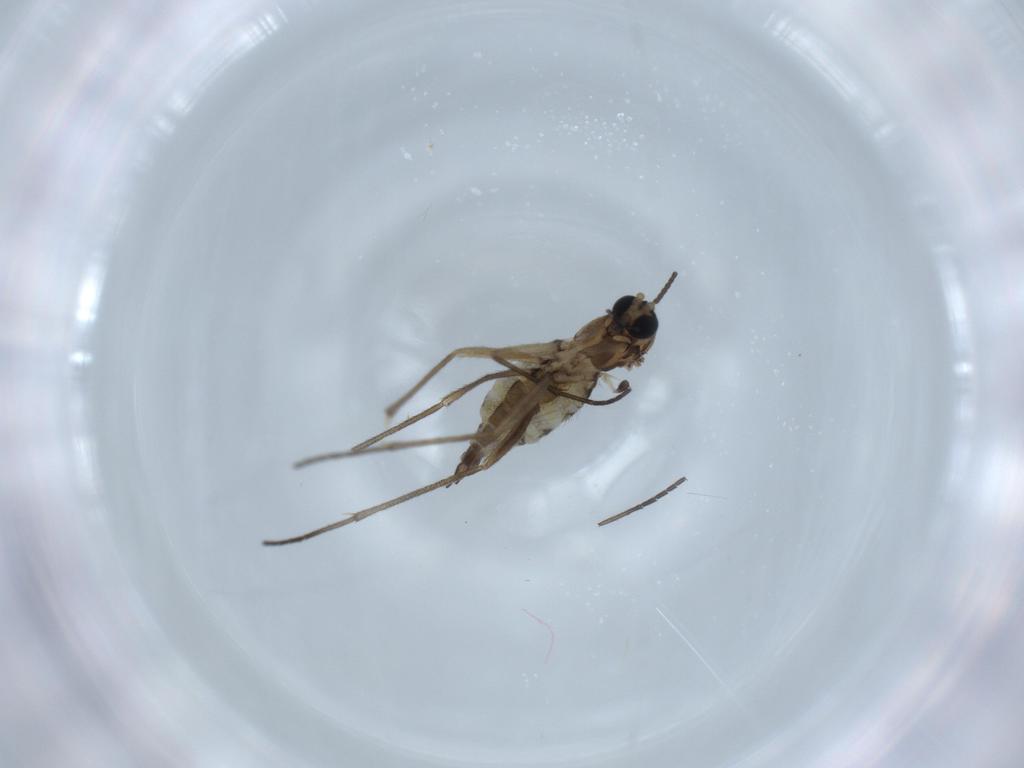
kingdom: Animalia
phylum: Arthropoda
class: Insecta
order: Diptera
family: Sciaridae
